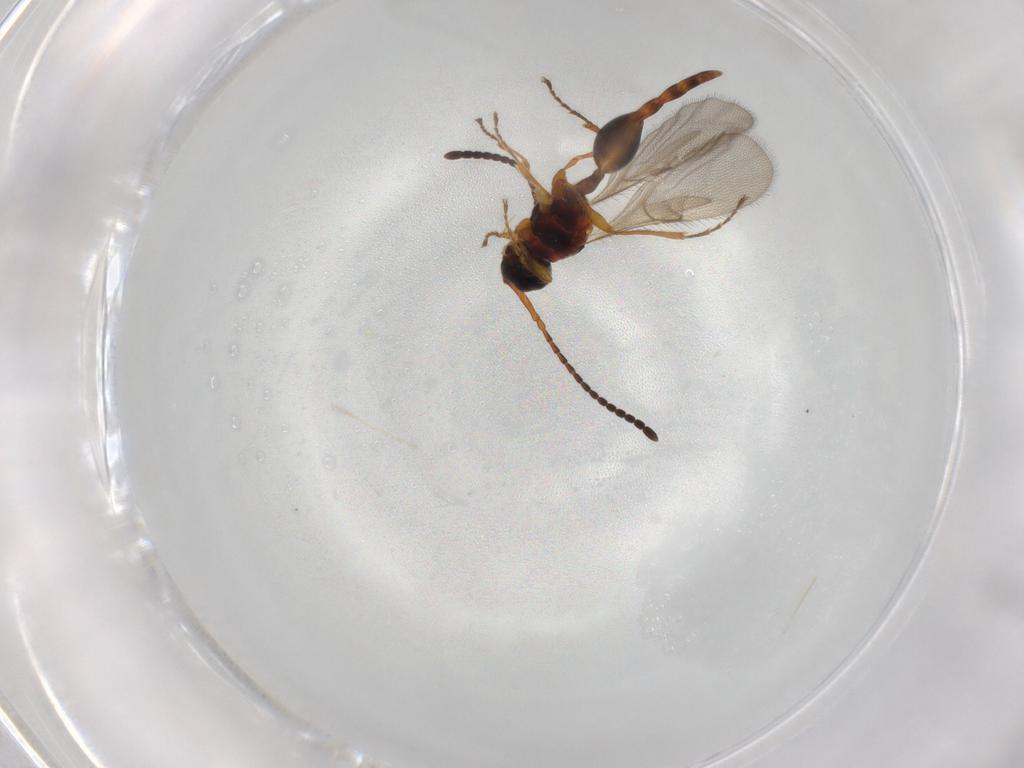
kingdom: Animalia
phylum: Arthropoda
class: Insecta
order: Hymenoptera
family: Diapriidae
